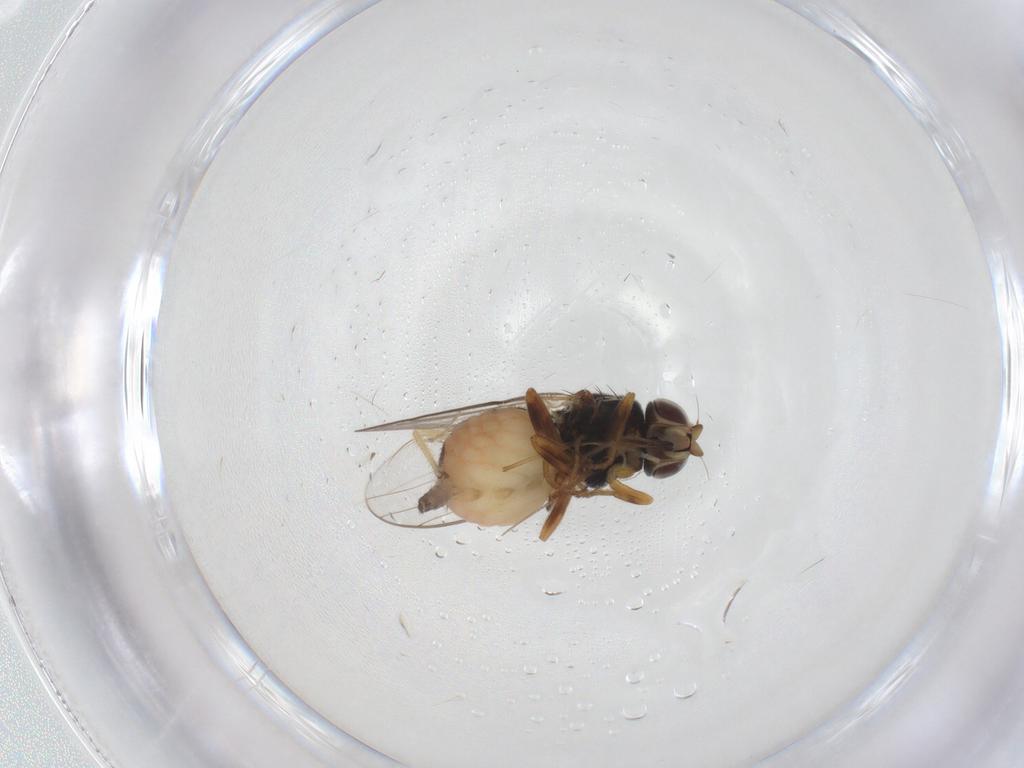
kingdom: Animalia
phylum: Arthropoda
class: Insecta
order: Diptera
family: Chloropidae
